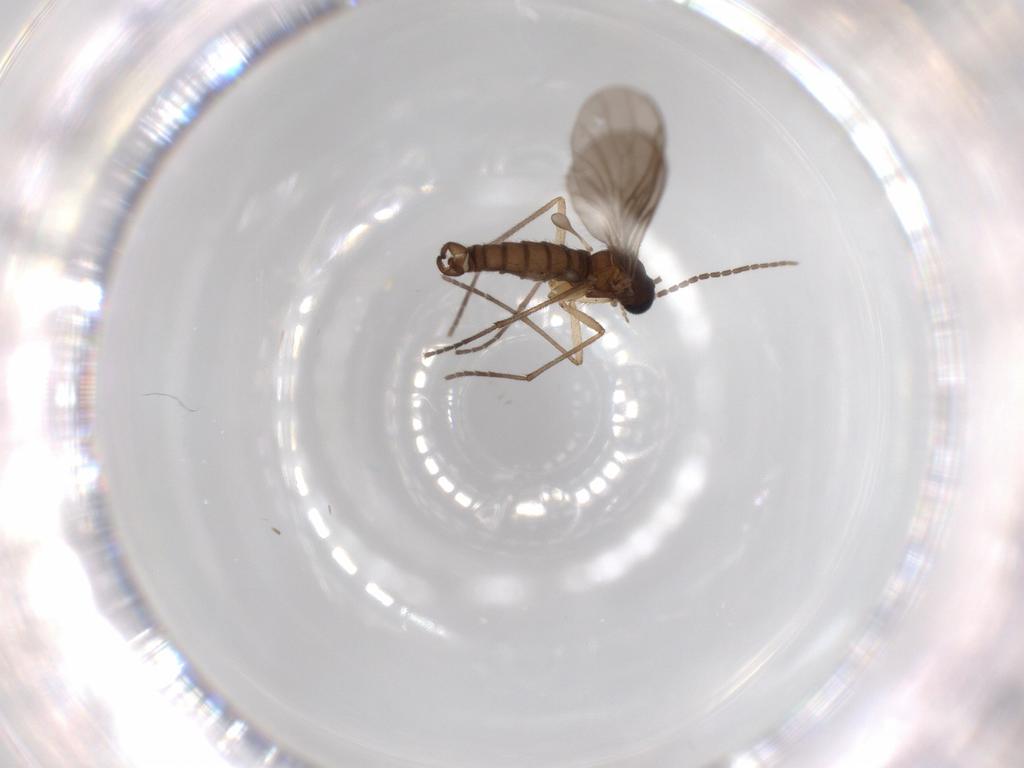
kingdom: Animalia
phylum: Arthropoda
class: Insecta
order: Diptera
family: Sciaridae
